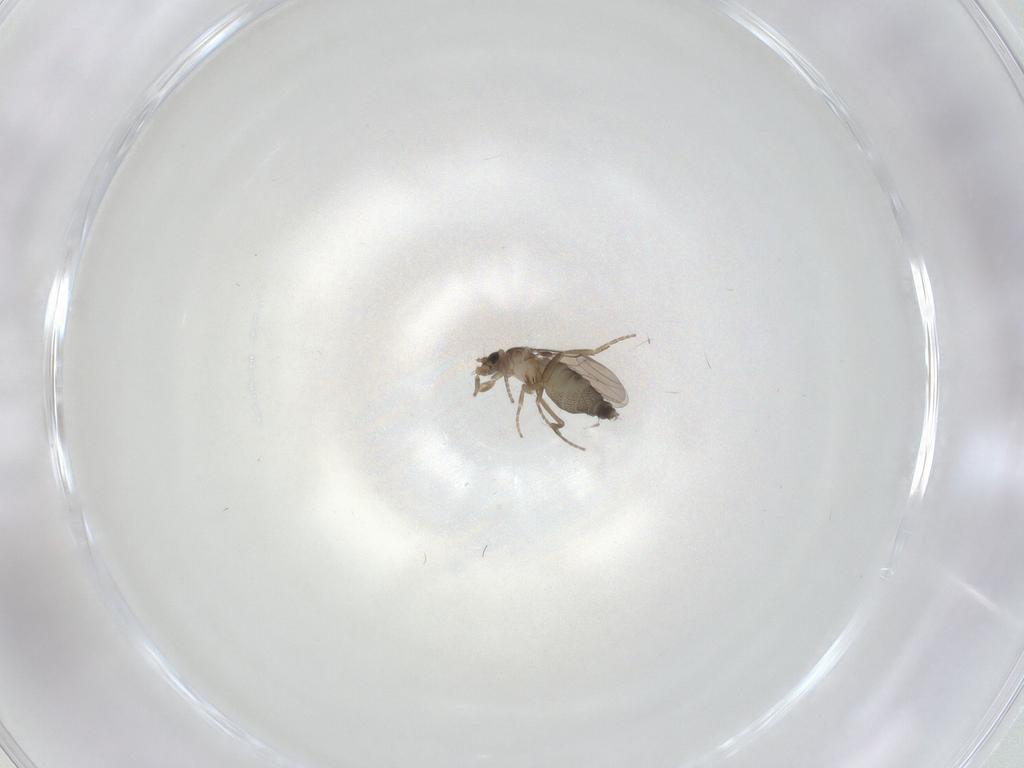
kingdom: Animalia
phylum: Arthropoda
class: Insecta
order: Diptera
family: Phoridae
